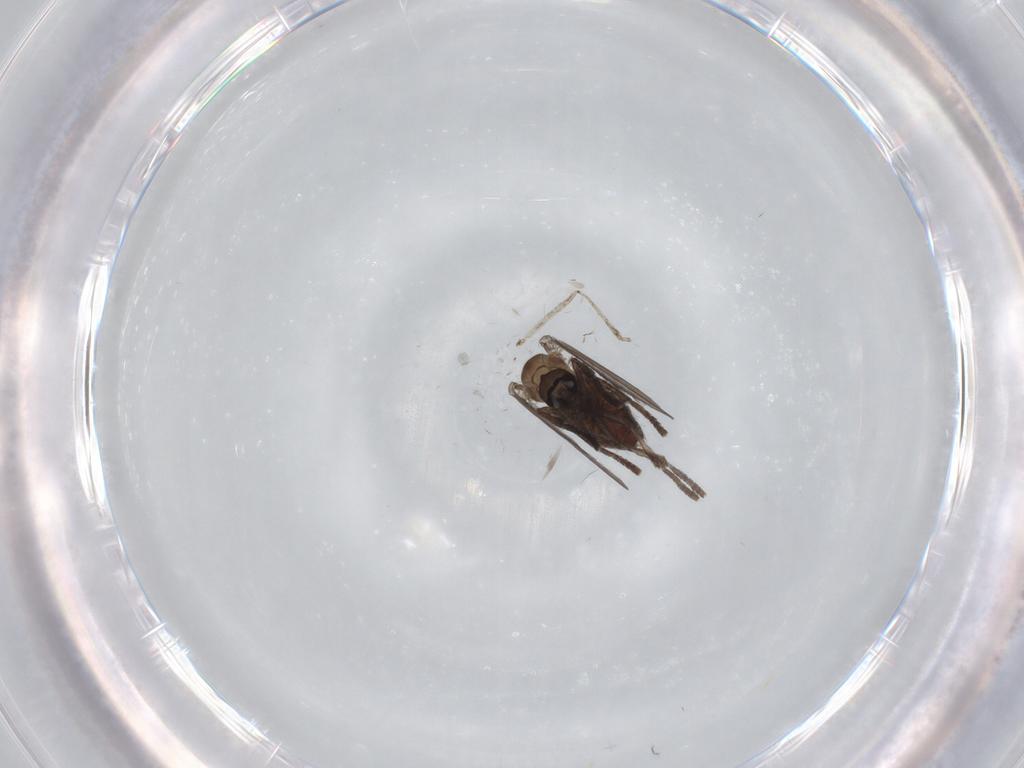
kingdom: Animalia
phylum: Arthropoda
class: Insecta
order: Diptera
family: Psychodidae
